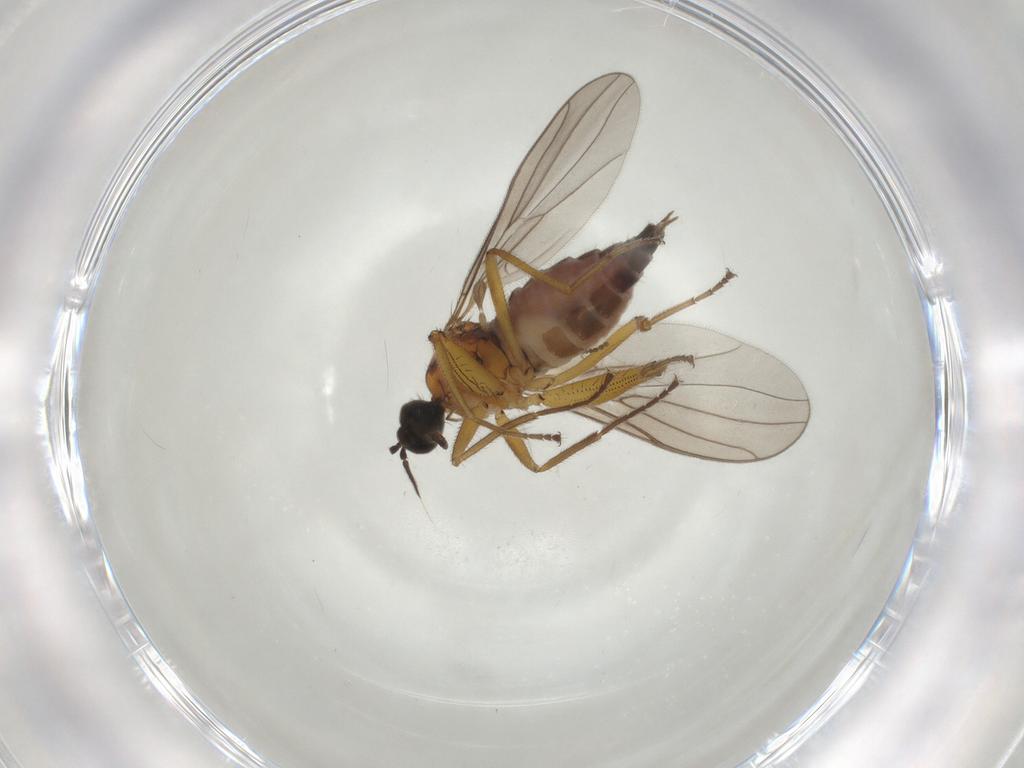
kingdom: Animalia
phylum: Arthropoda
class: Insecta
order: Diptera
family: Hybotidae
